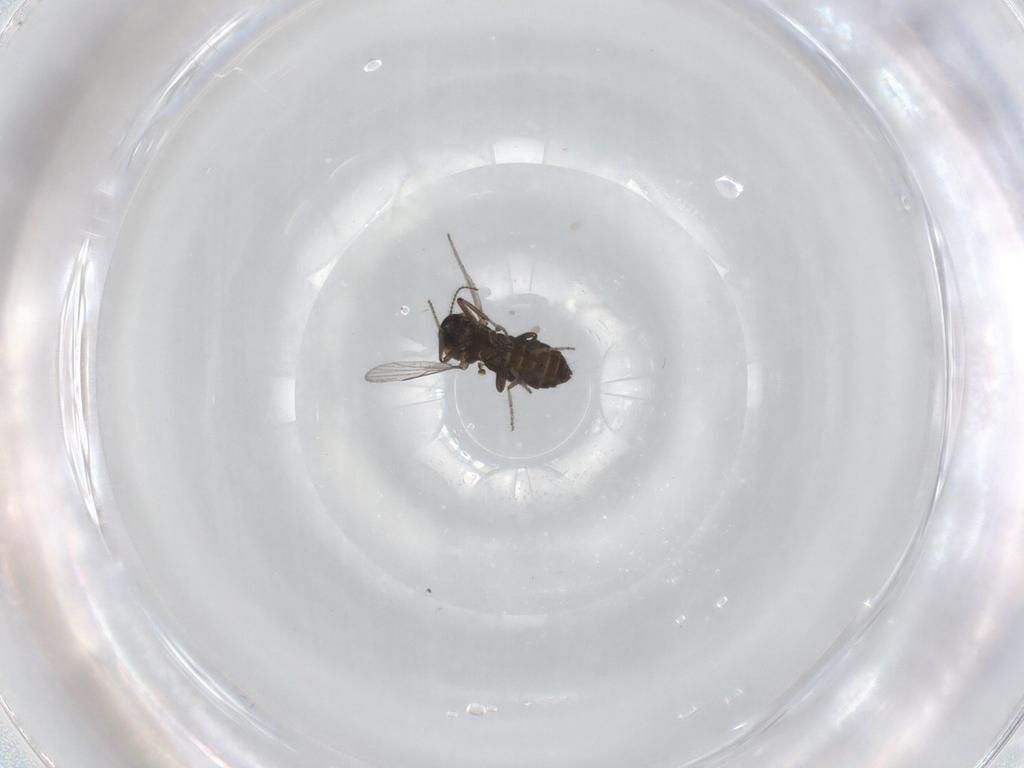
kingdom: Animalia
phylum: Arthropoda
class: Insecta
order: Diptera
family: Ceratopogonidae
